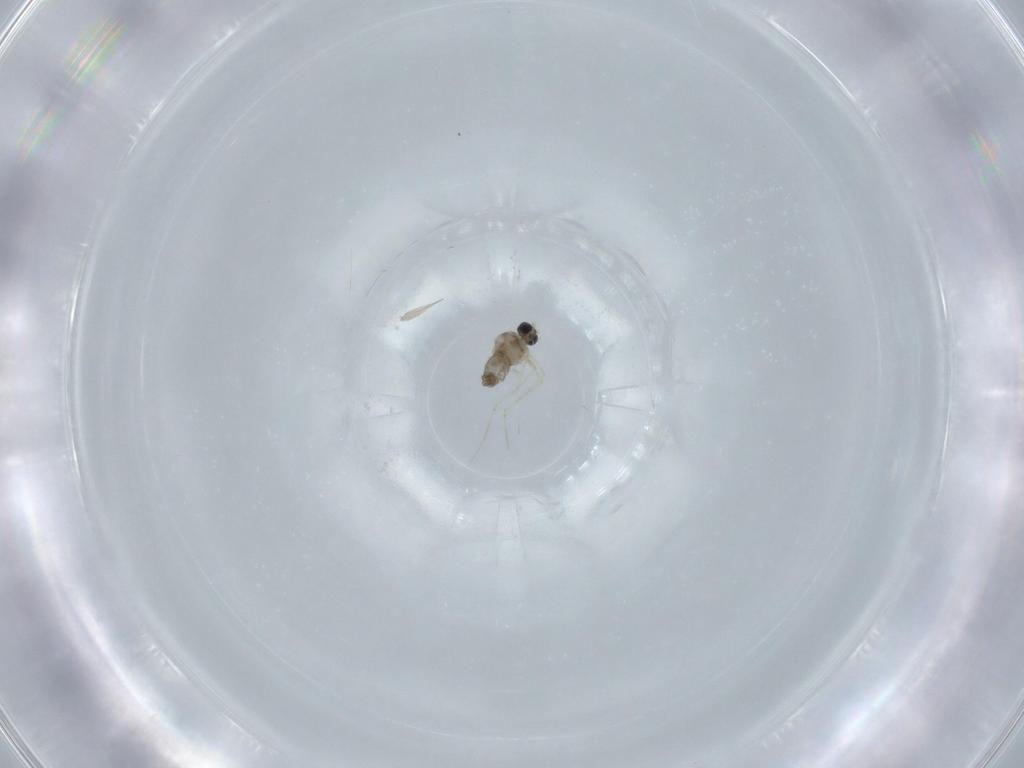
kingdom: Animalia
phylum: Arthropoda
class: Insecta
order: Diptera
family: Cecidomyiidae
